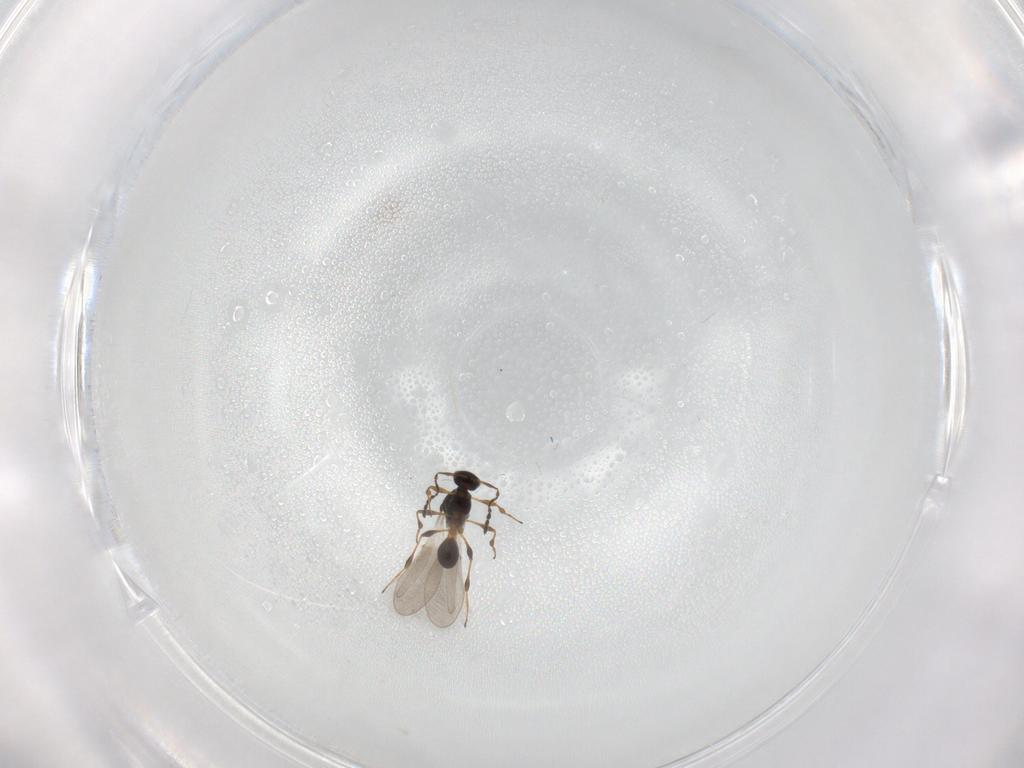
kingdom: Animalia
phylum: Arthropoda
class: Insecta
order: Hymenoptera
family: Platygastridae
